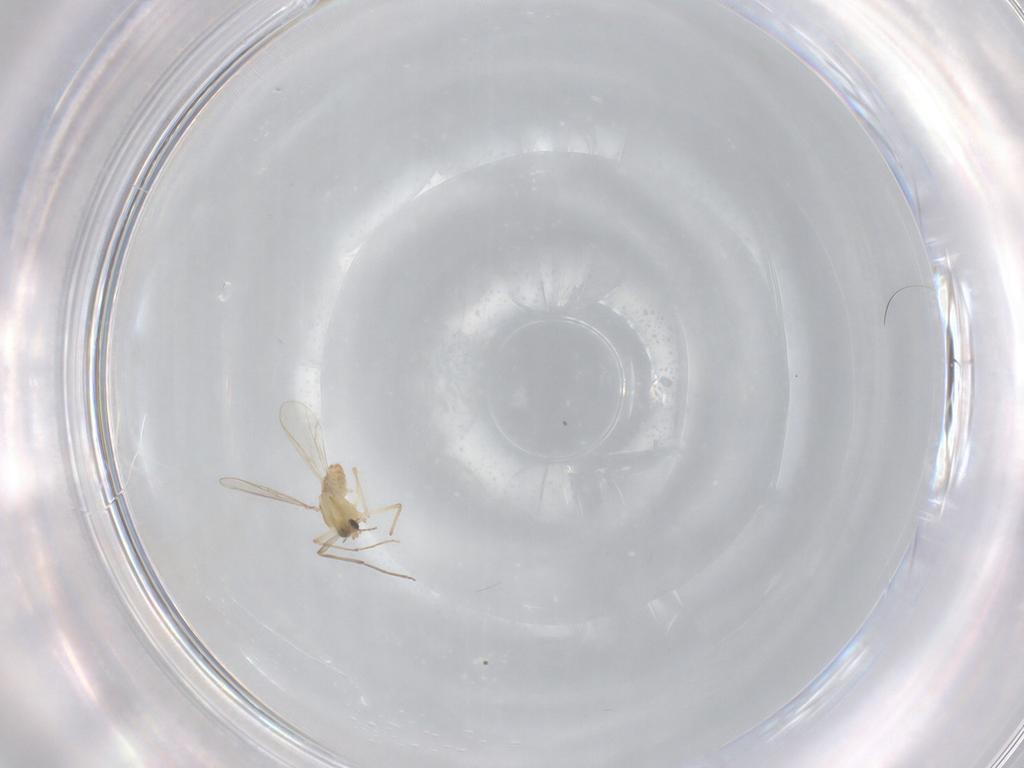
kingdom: Animalia
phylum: Arthropoda
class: Insecta
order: Diptera
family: Chironomidae
